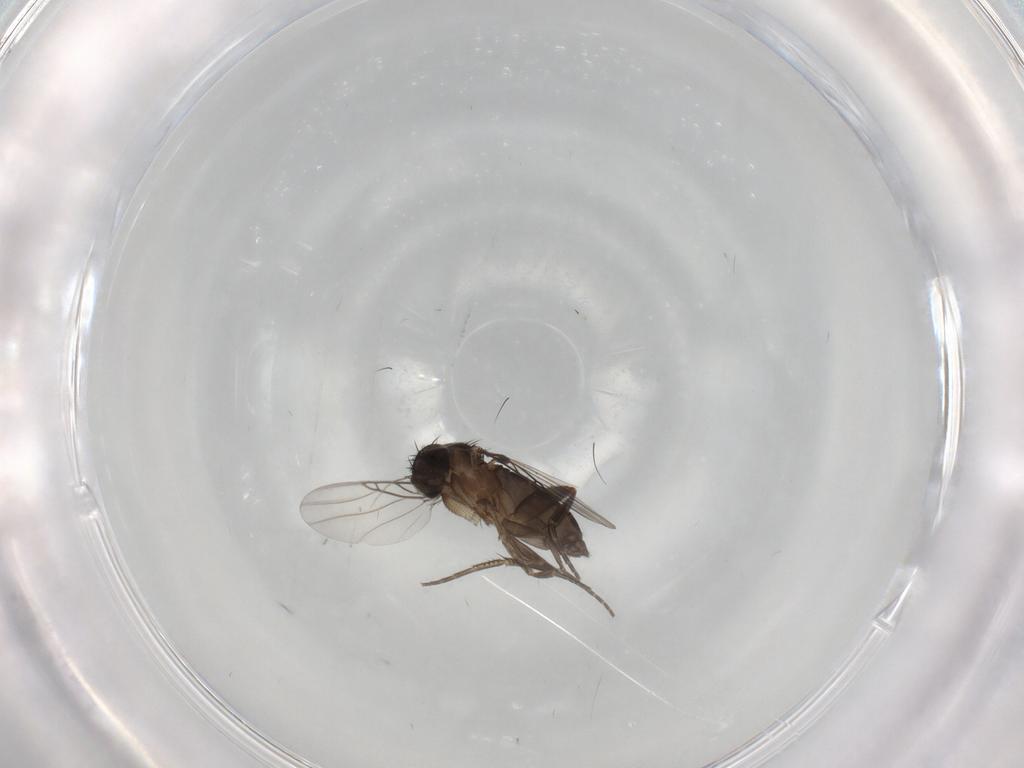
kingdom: Animalia
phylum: Arthropoda
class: Insecta
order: Diptera
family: Phoridae
